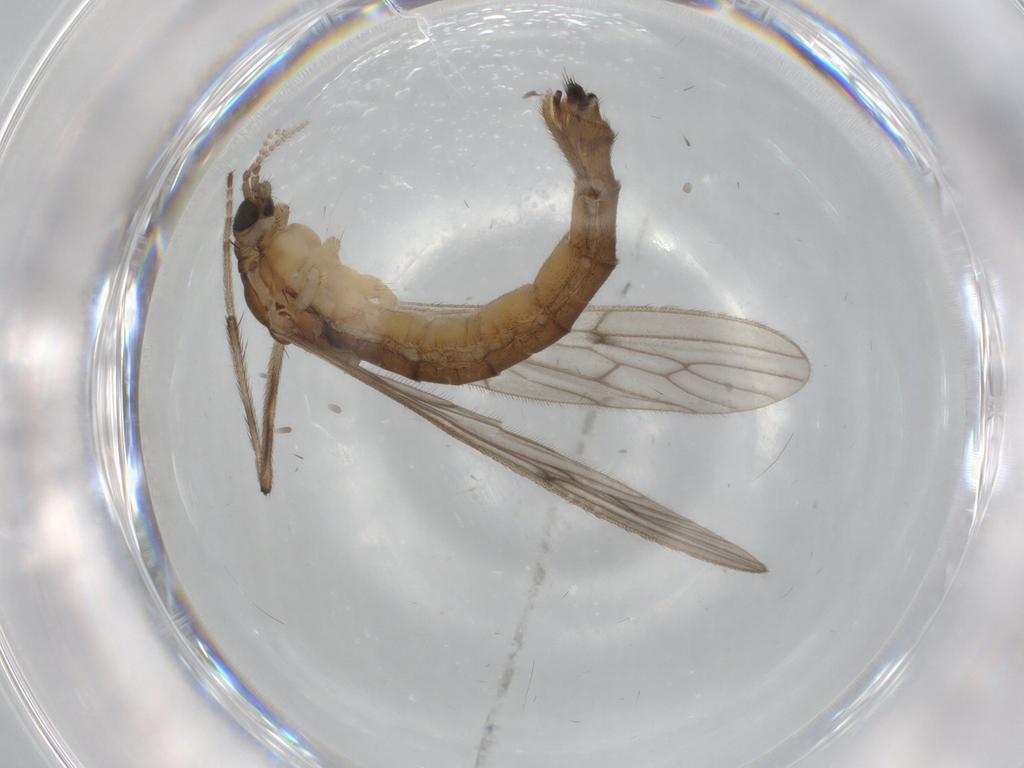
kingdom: Animalia
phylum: Arthropoda
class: Insecta
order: Diptera
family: Limoniidae
